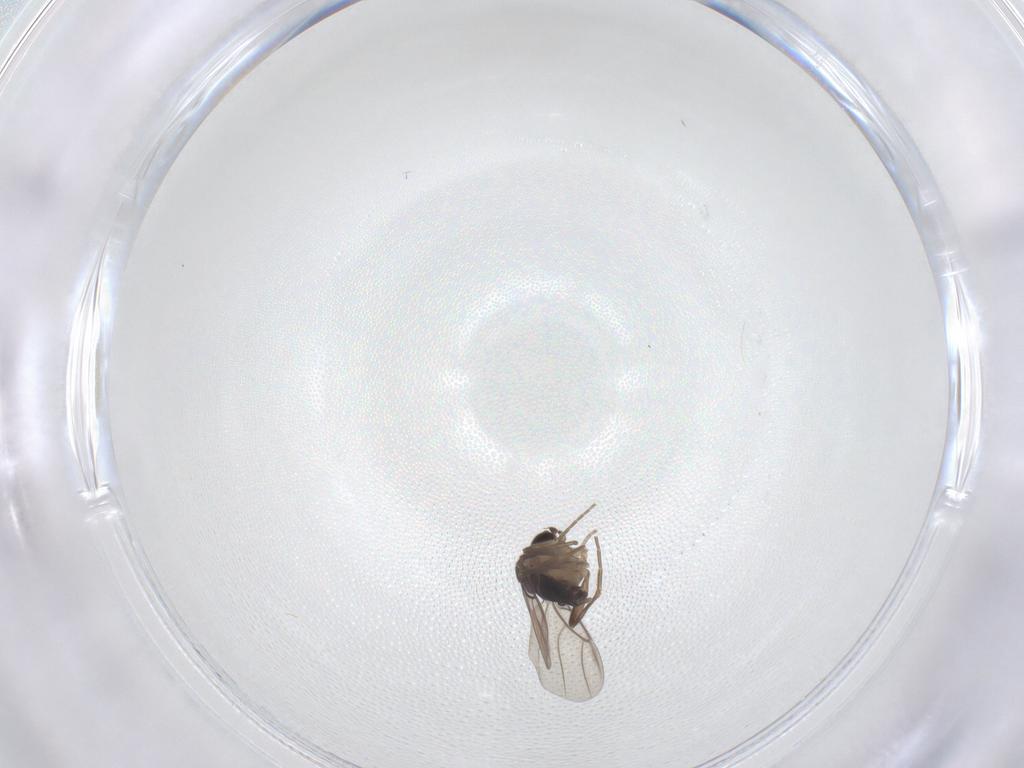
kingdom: Animalia
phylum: Arthropoda
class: Insecta
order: Diptera
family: Phoridae
